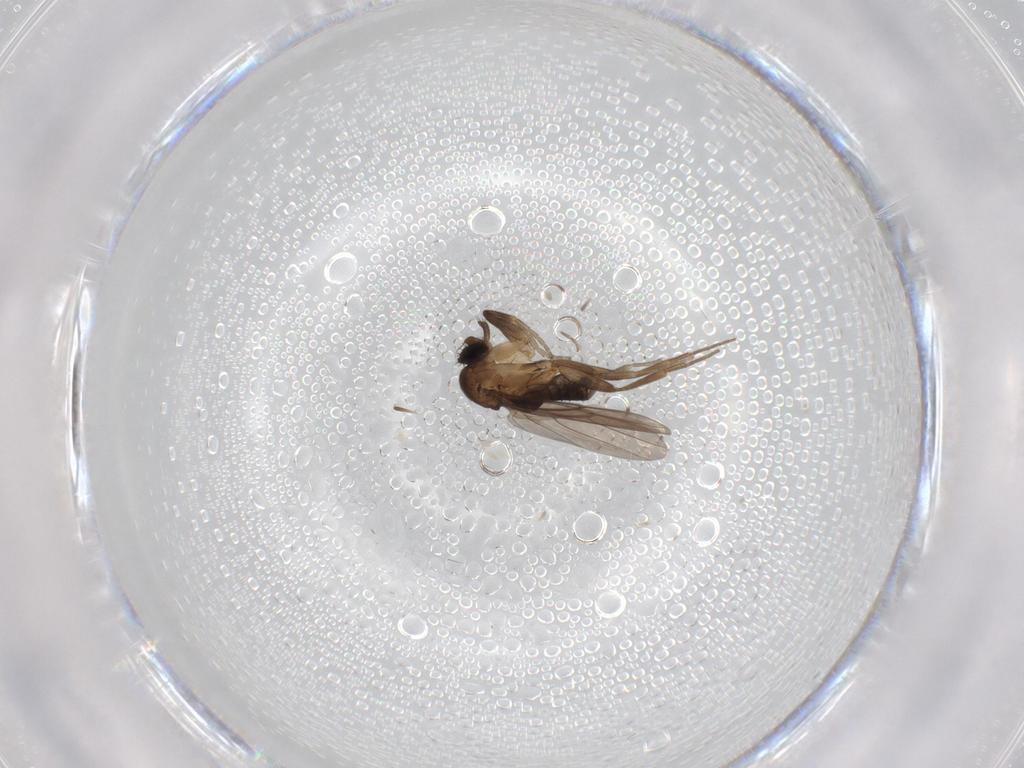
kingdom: Animalia
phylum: Arthropoda
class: Insecta
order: Diptera
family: Phoridae
